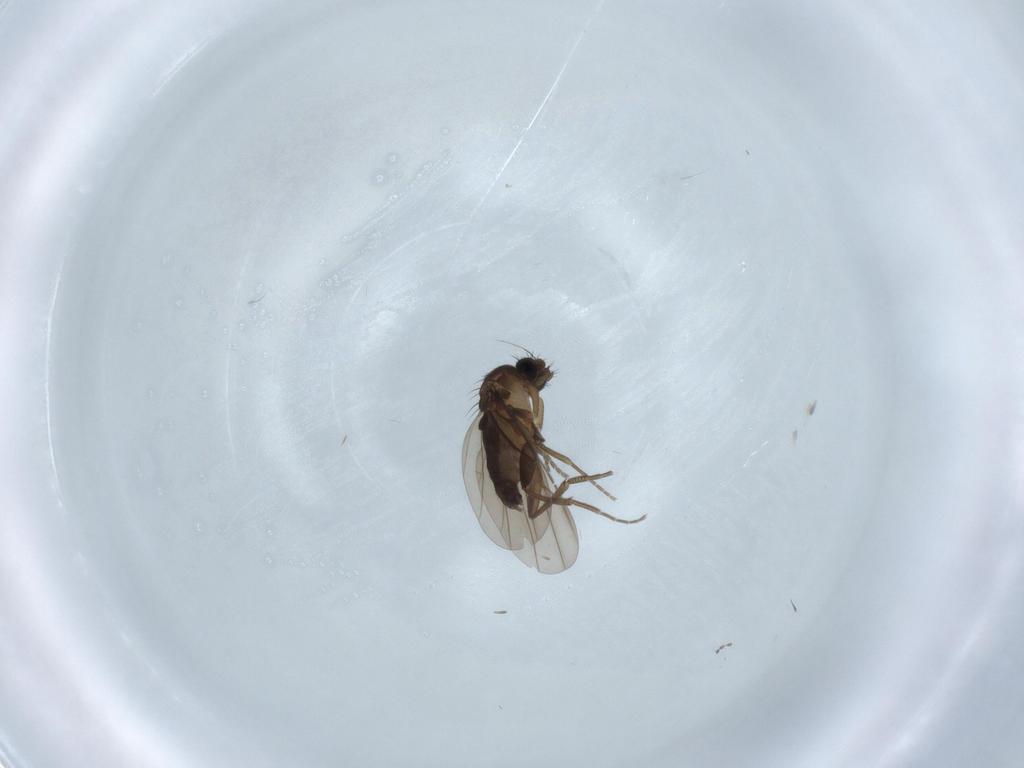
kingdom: Animalia
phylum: Arthropoda
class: Insecta
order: Diptera
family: Phoridae
